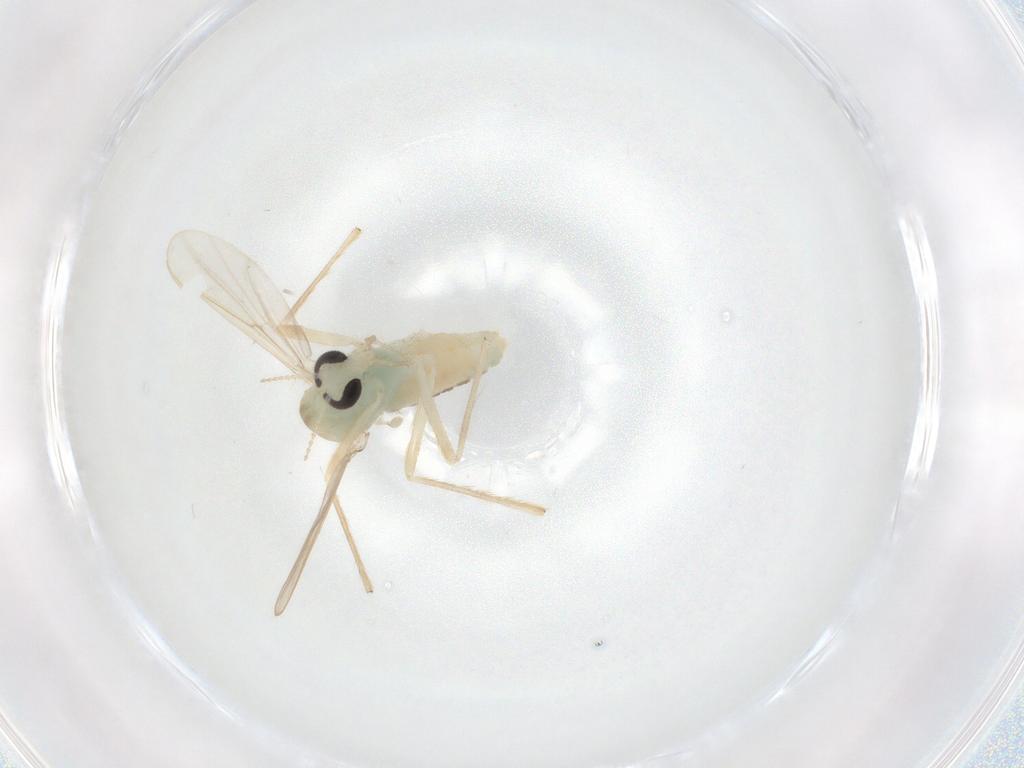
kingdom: Animalia
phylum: Arthropoda
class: Insecta
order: Diptera
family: Chironomidae
